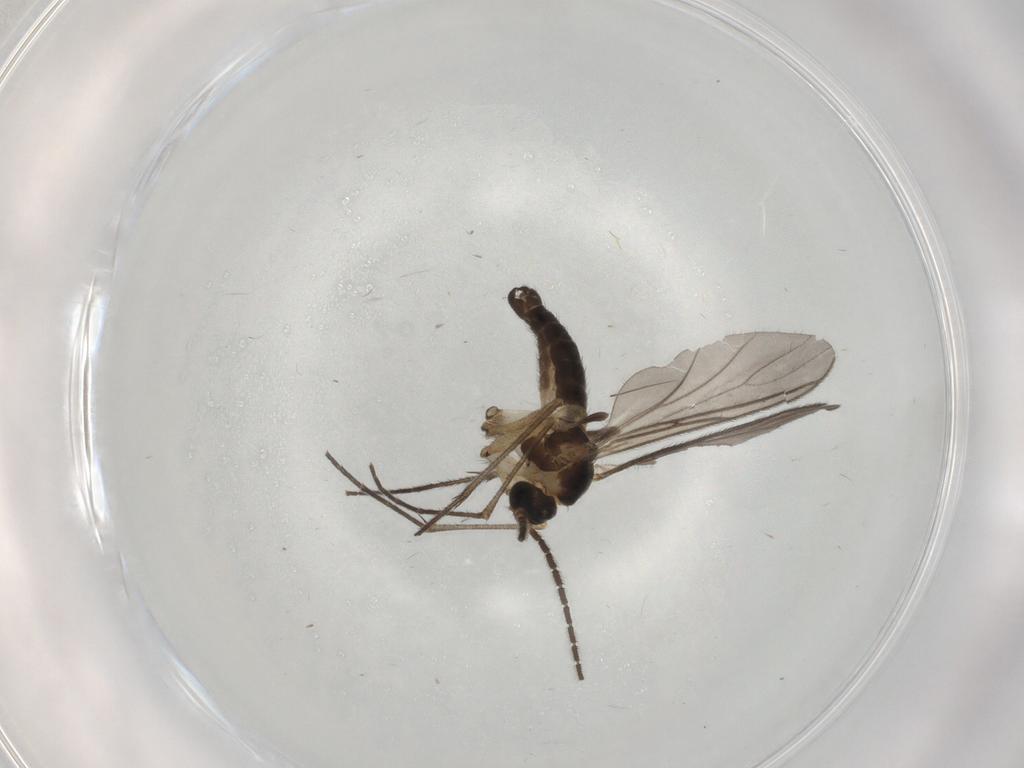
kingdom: Animalia
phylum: Arthropoda
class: Insecta
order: Diptera
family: Sciaridae
